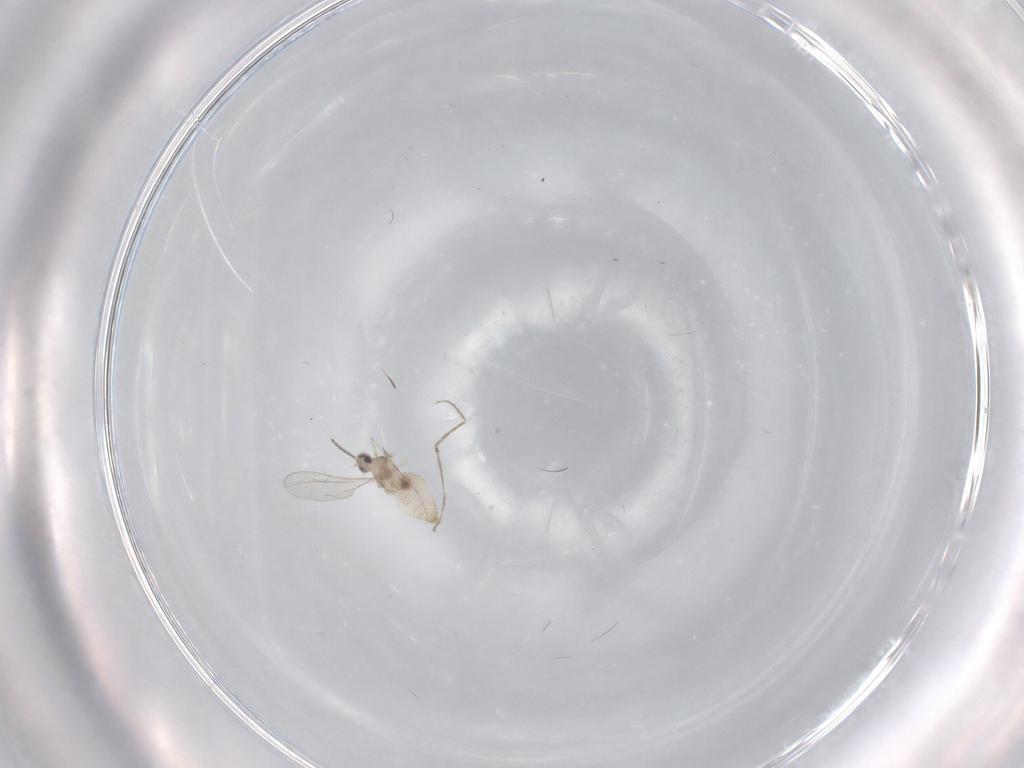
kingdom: Animalia
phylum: Arthropoda
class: Insecta
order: Diptera
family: Cecidomyiidae
